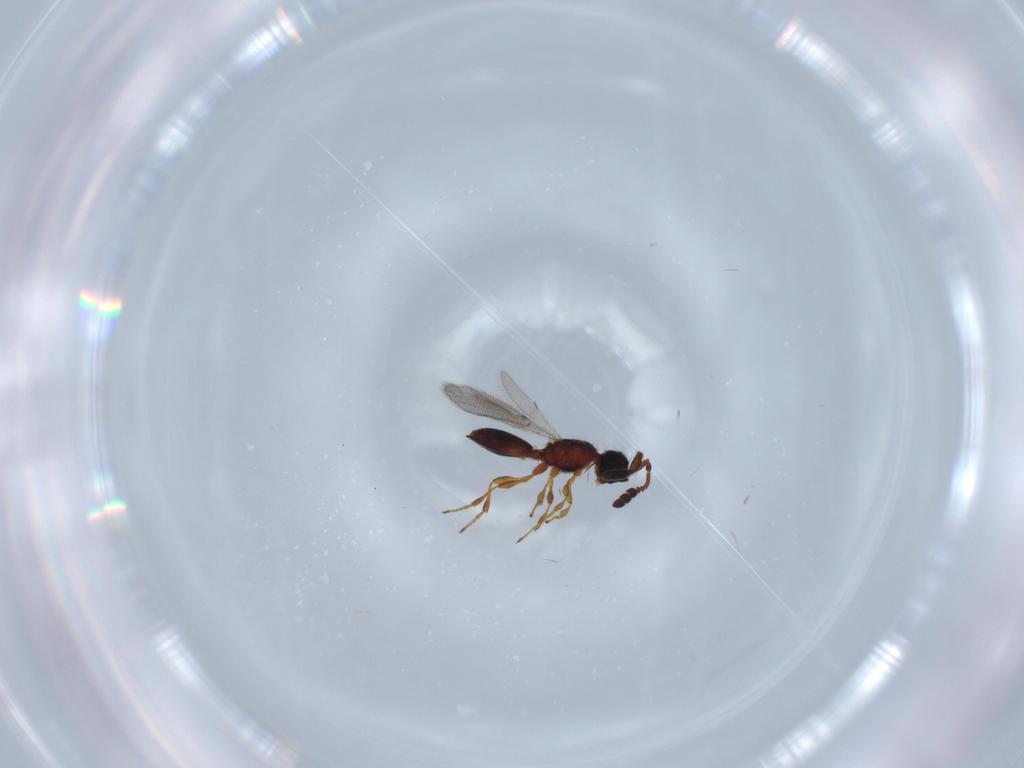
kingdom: Animalia
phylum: Arthropoda
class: Insecta
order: Hymenoptera
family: Diapriidae
